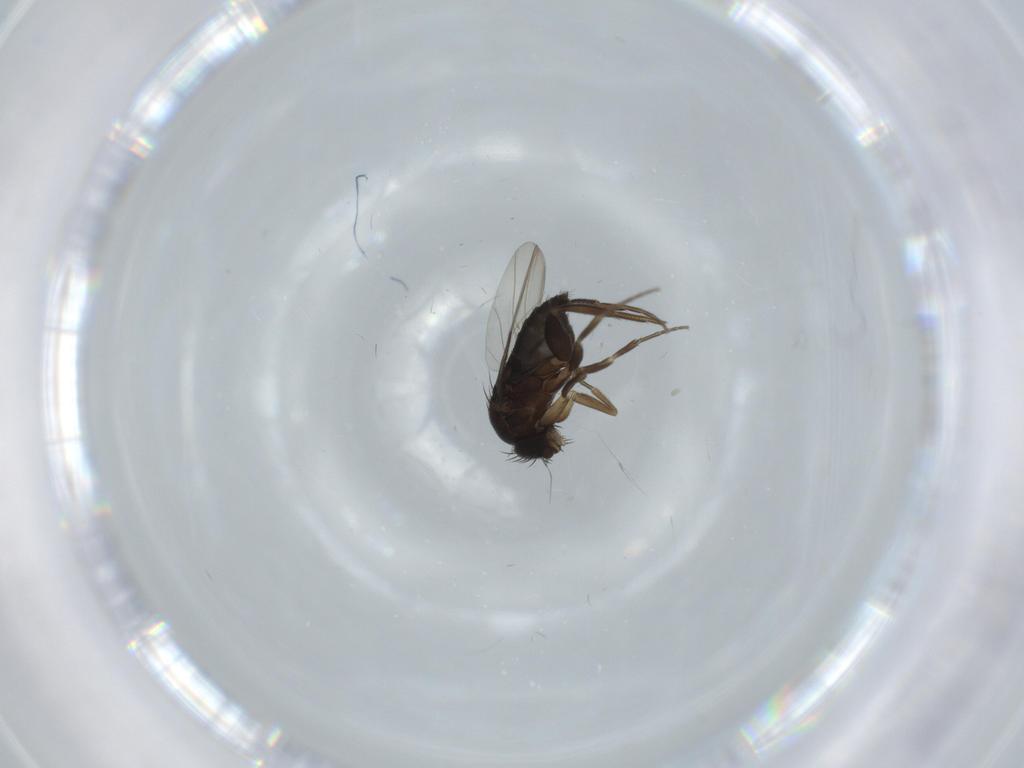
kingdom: Animalia
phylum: Arthropoda
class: Insecta
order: Diptera
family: Phoridae
